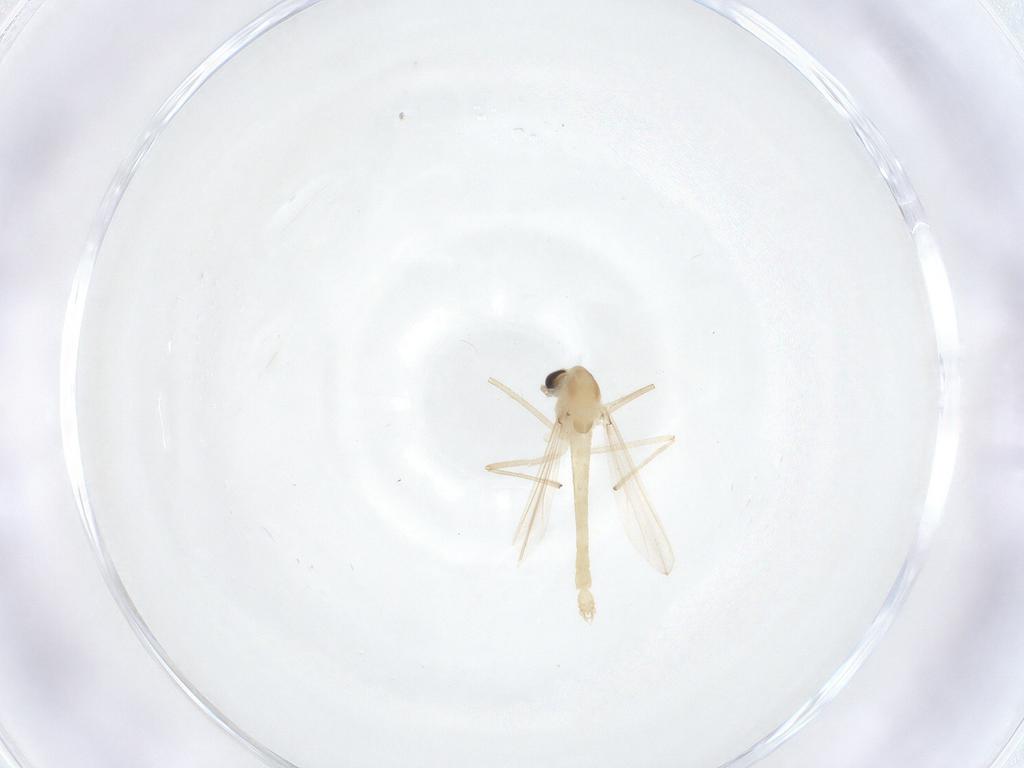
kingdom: Animalia
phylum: Arthropoda
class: Insecta
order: Diptera
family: Chironomidae
